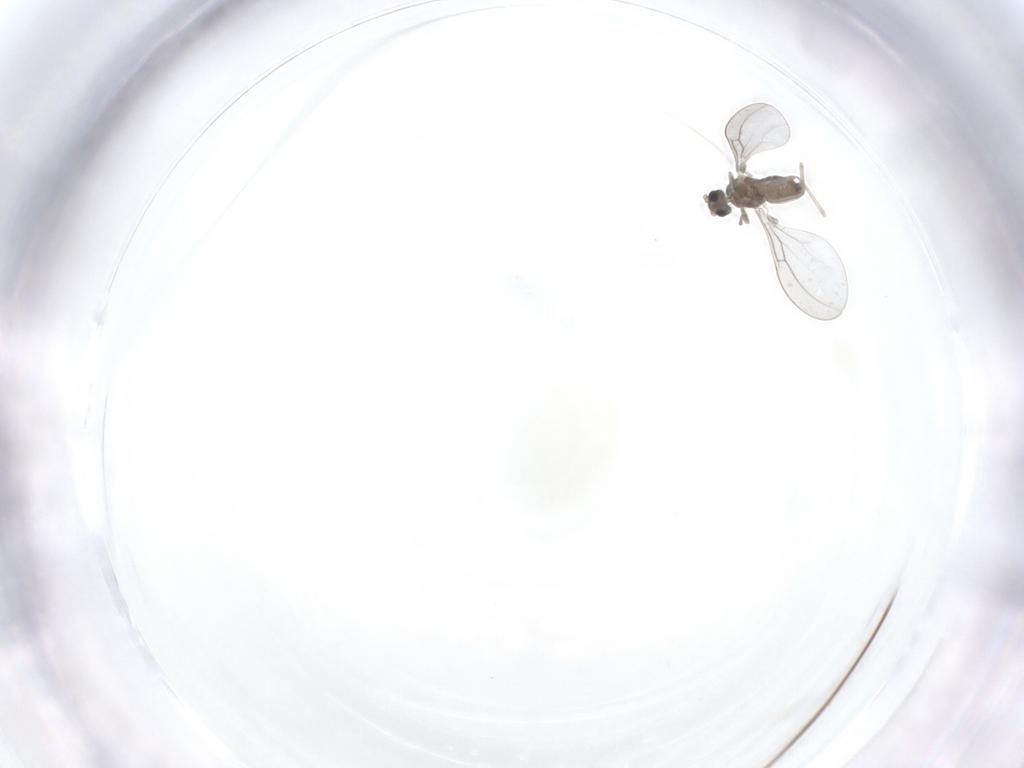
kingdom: Animalia
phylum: Arthropoda
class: Insecta
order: Diptera
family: Cecidomyiidae
